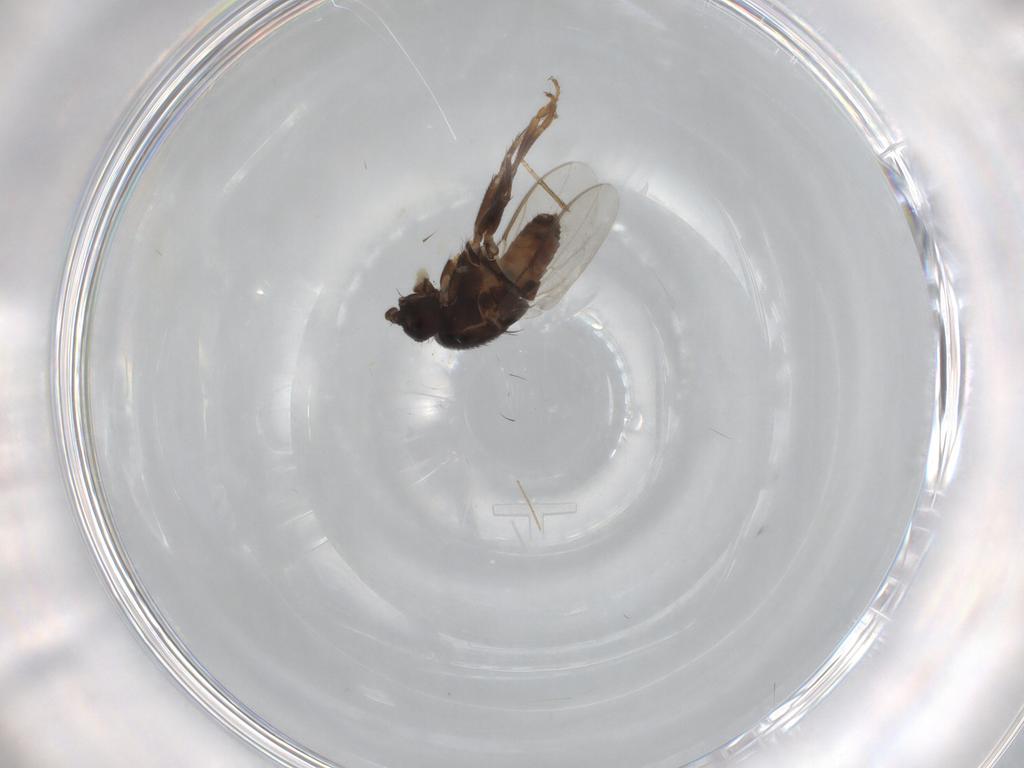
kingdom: Animalia
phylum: Arthropoda
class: Insecta
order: Diptera
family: Sphaeroceridae
